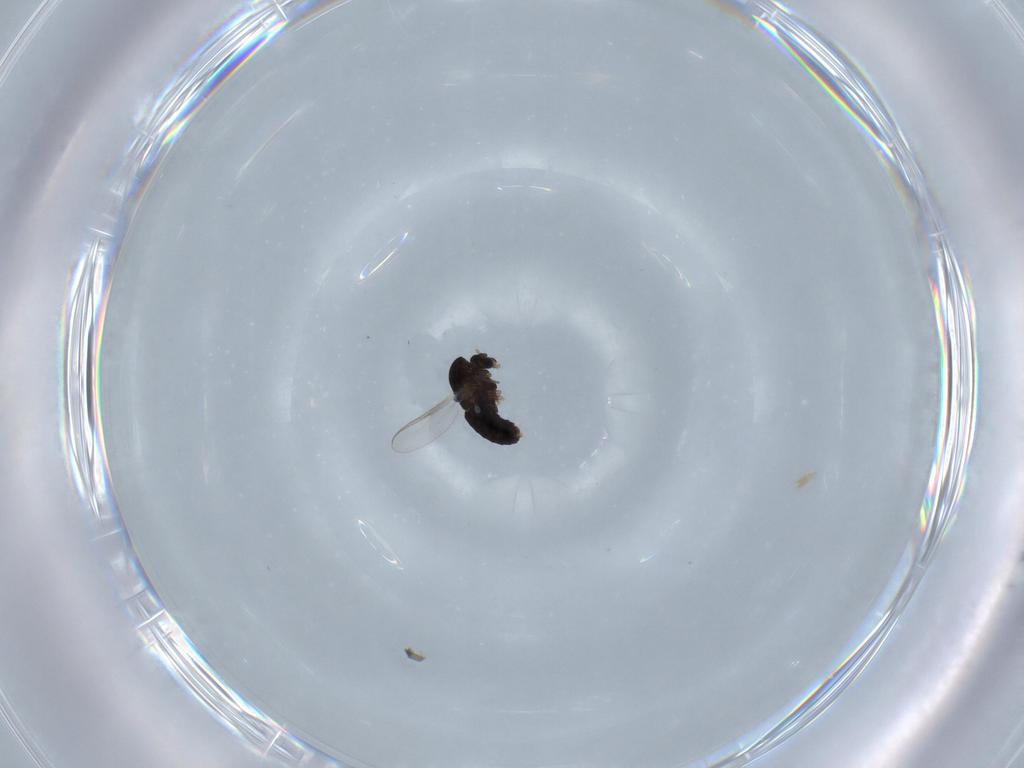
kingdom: Animalia
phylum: Arthropoda
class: Insecta
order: Diptera
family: Chironomidae
